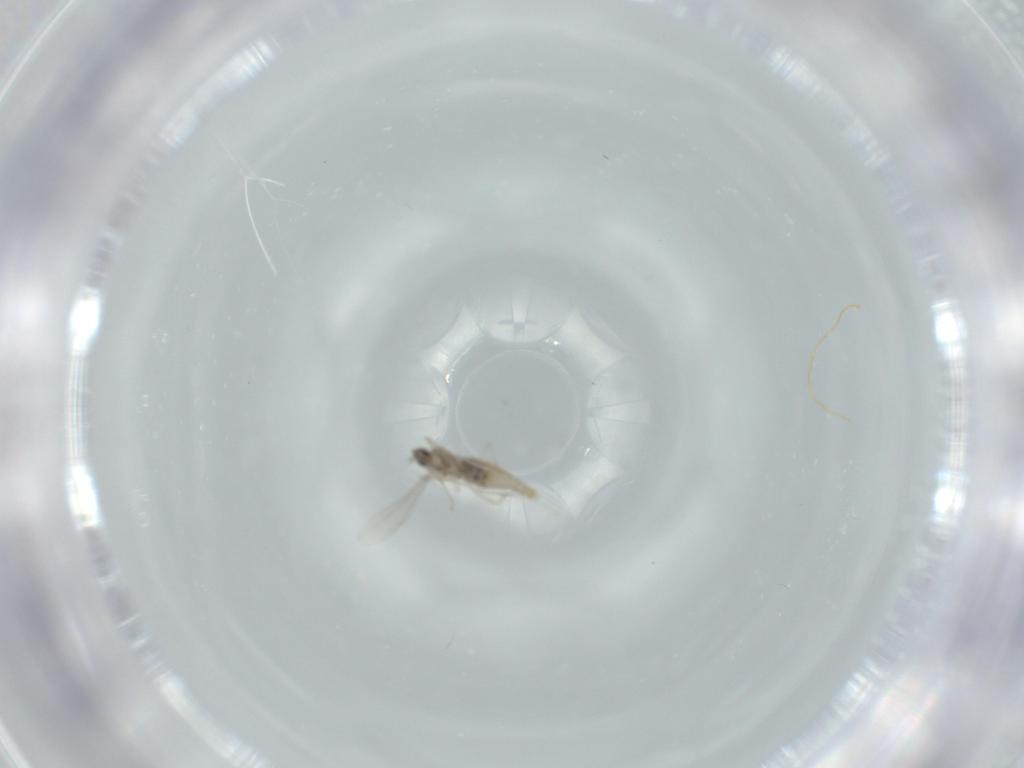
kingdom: Animalia
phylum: Arthropoda
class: Insecta
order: Diptera
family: Cecidomyiidae
